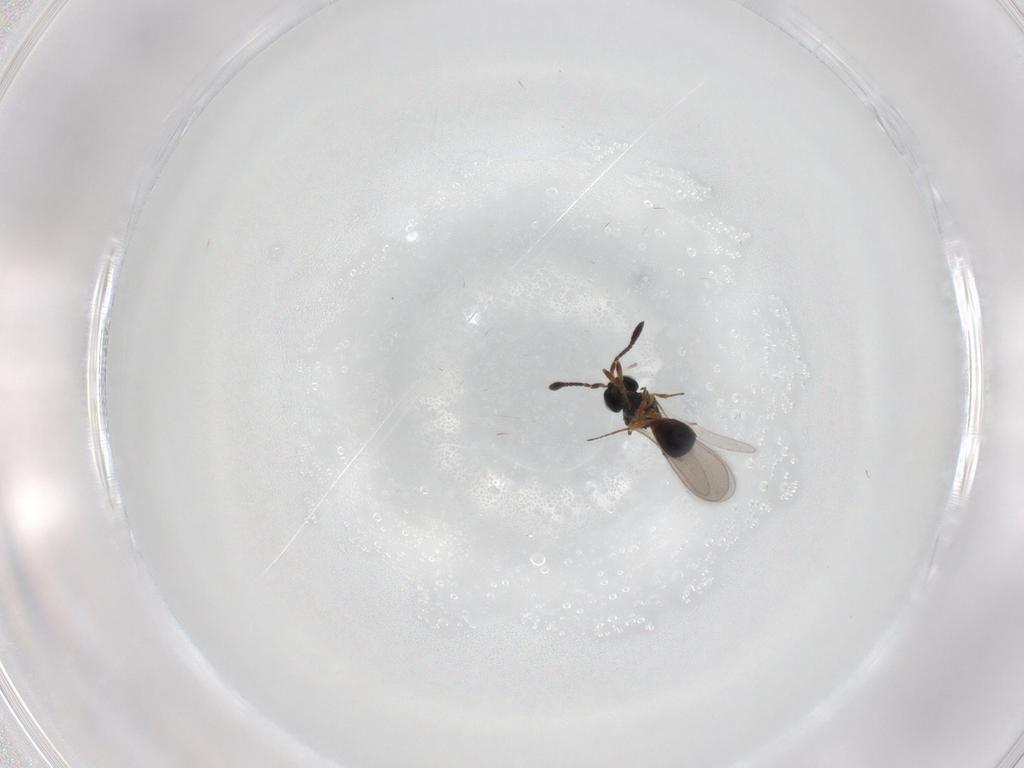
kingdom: Animalia
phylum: Arthropoda
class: Insecta
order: Hymenoptera
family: Scelionidae
